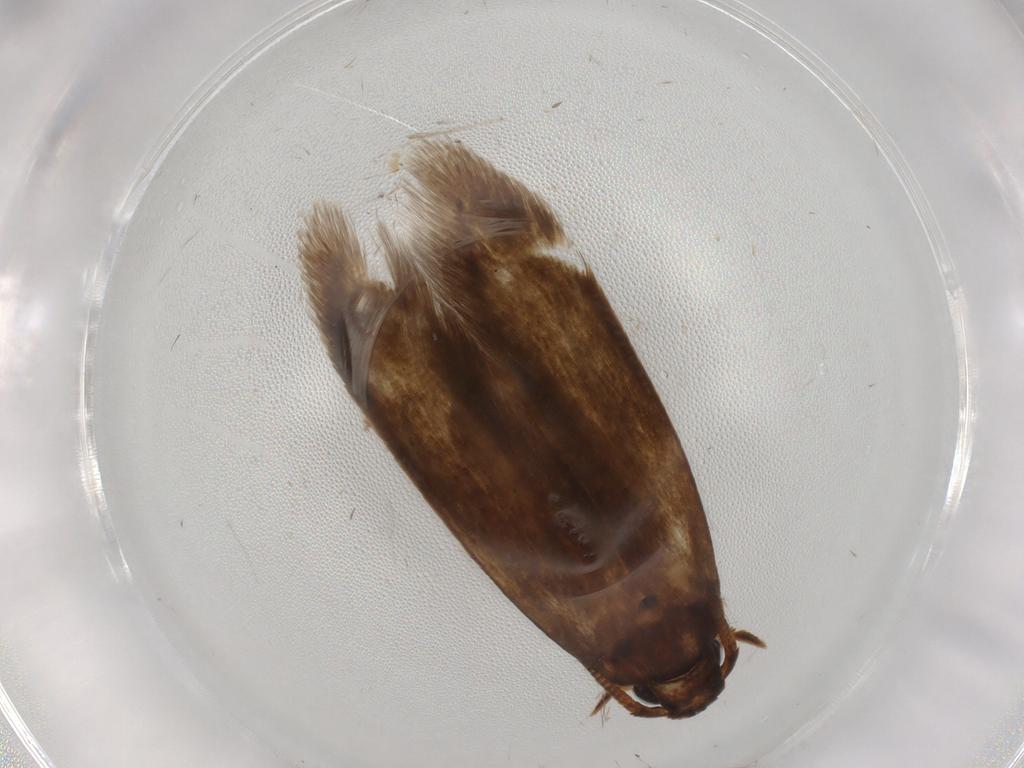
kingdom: Animalia
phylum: Arthropoda
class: Insecta
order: Lepidoptera
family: Tineidae
